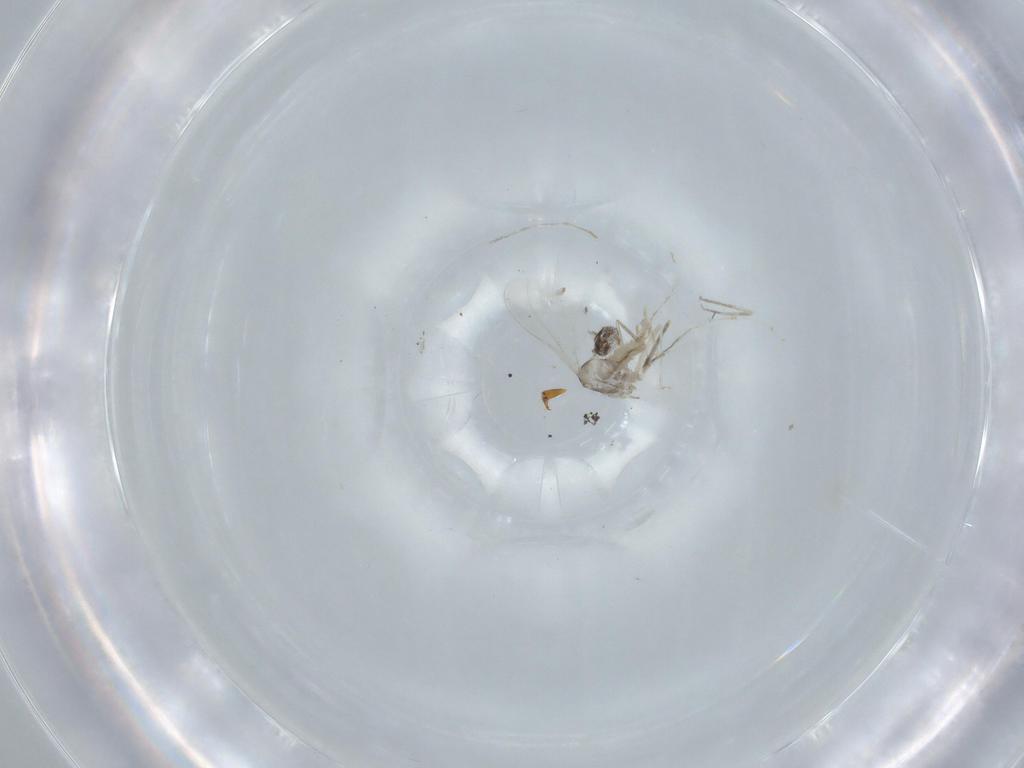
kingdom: Animalia
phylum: Arthropoda
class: Insecta
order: Diptera
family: Cecidomyiidae
